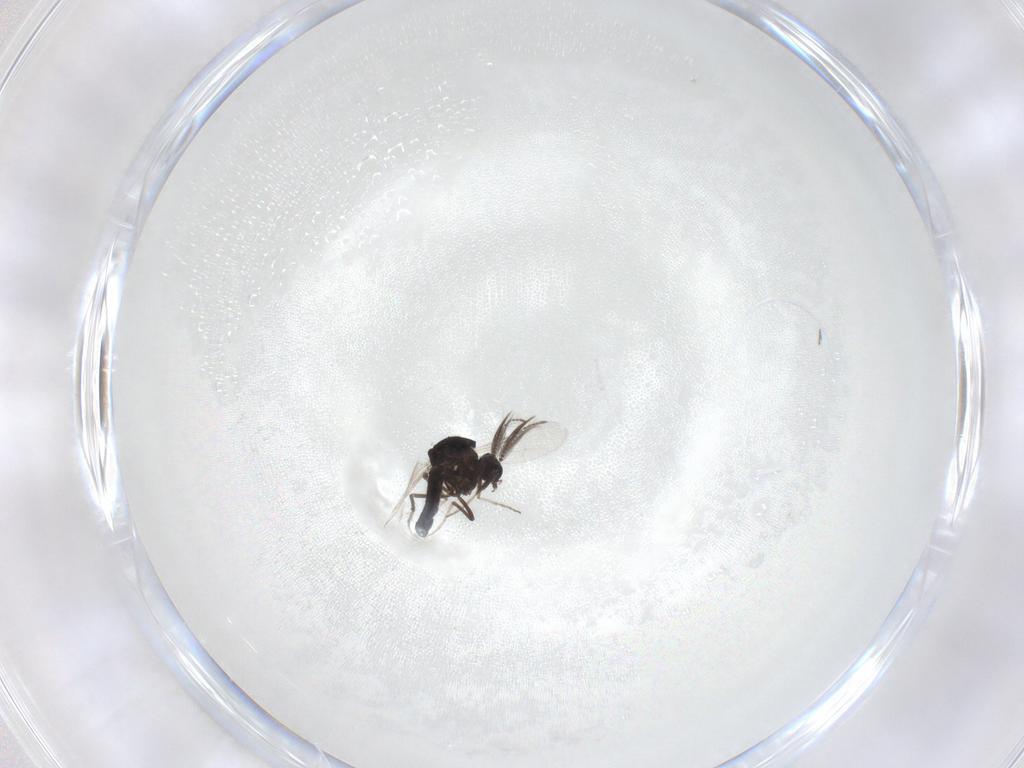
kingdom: Animalia
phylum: Arthropoda
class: Insecta
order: Diptera
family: Ceratopogonidae
